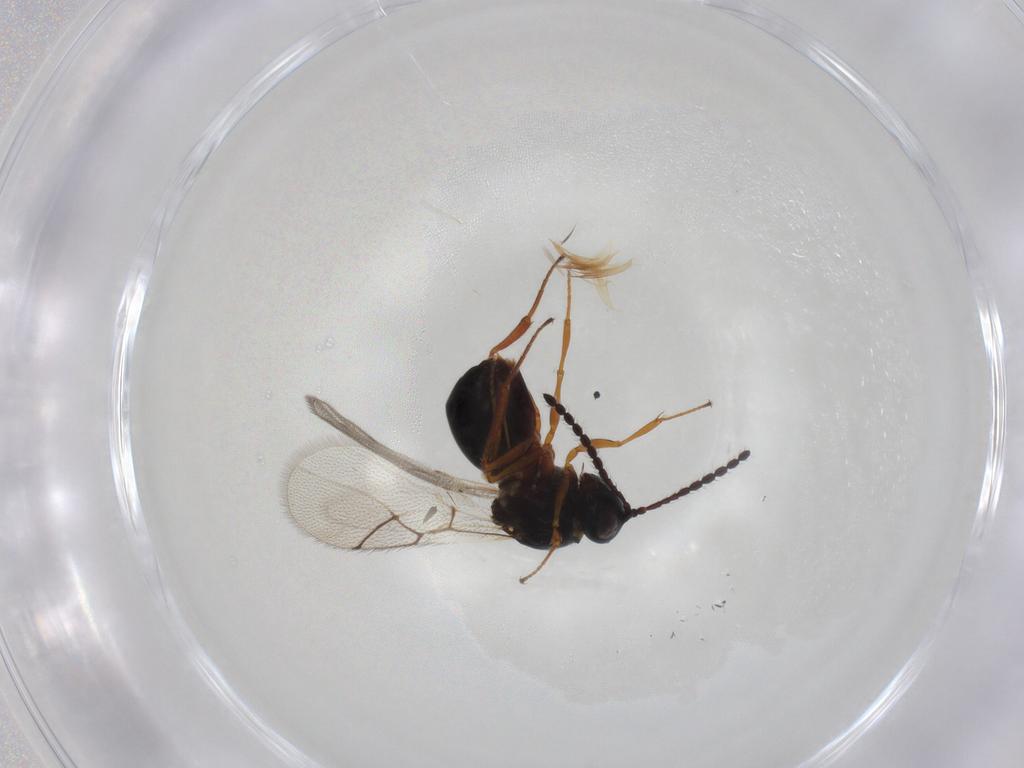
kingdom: Animalia
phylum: Arthropoda
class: Insecta
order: Hymenoptera
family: Figitidae
